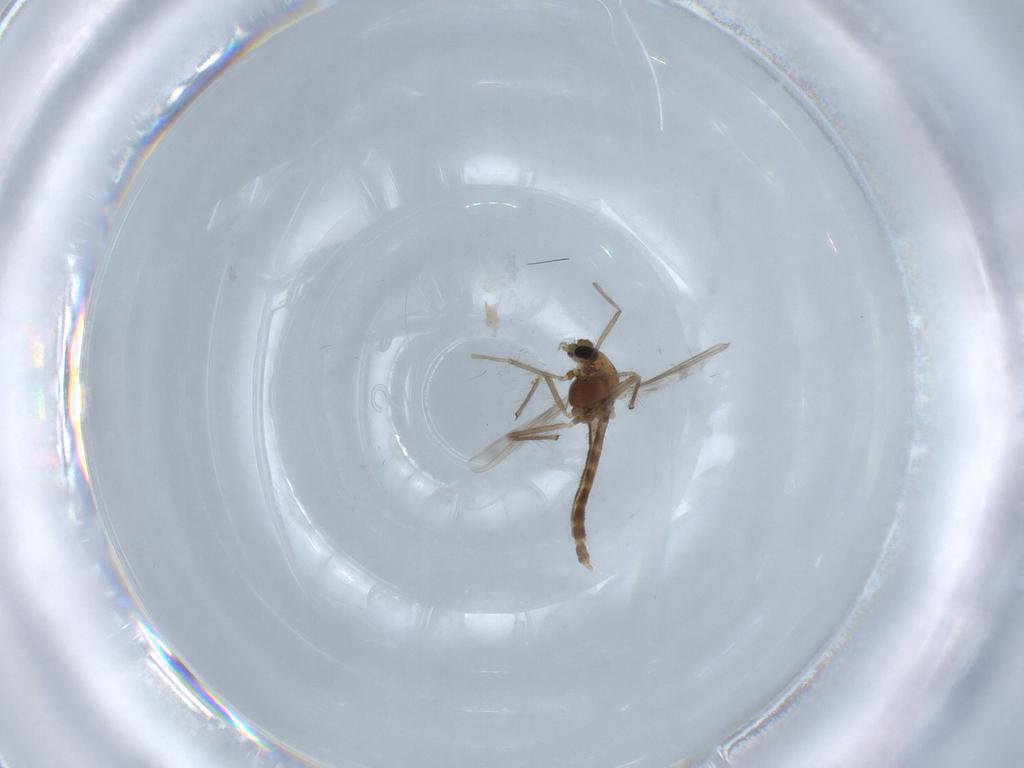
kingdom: Animalia
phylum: Arthropoda
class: Insecta
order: Diptera
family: Chironomidae
